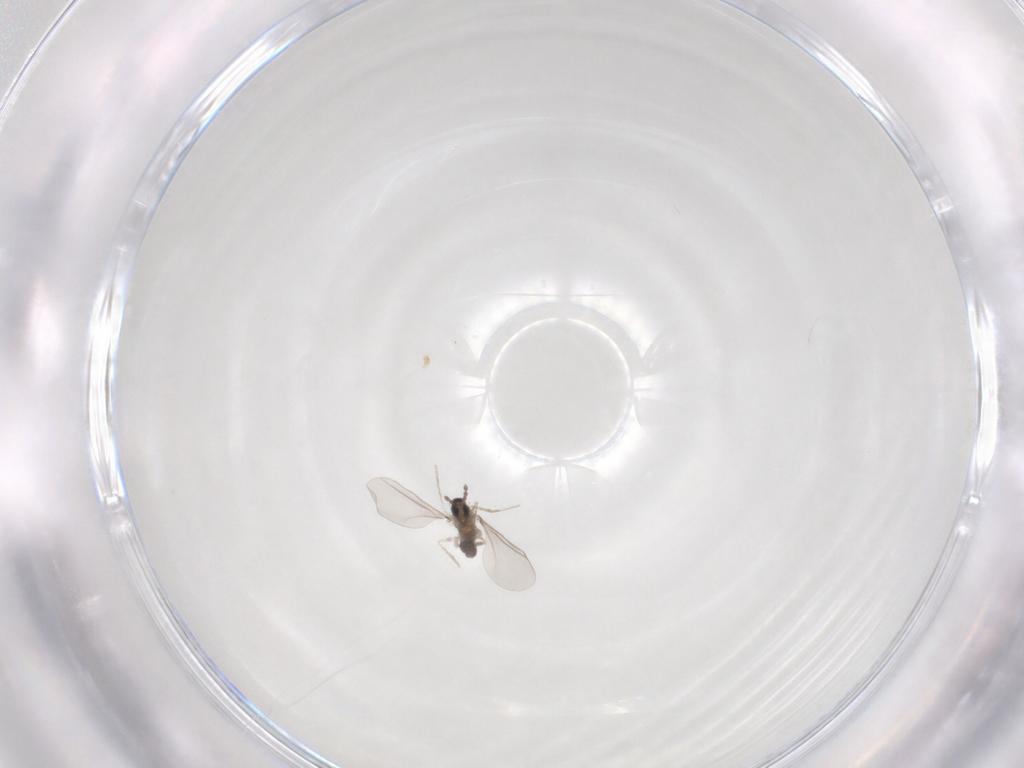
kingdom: Animalia
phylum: Arthropoda
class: Insecta
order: Diptera
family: Cecidomyiidae
